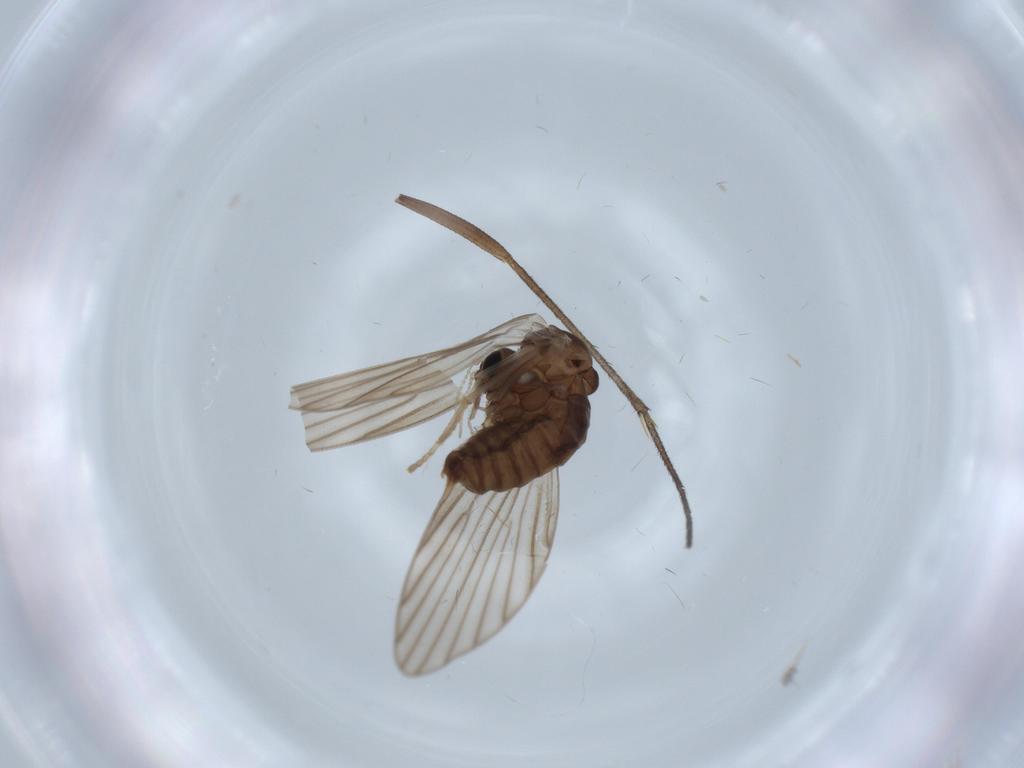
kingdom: Animalia
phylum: Arthropoda
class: Insecta
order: Diptera
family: Psychodidae
